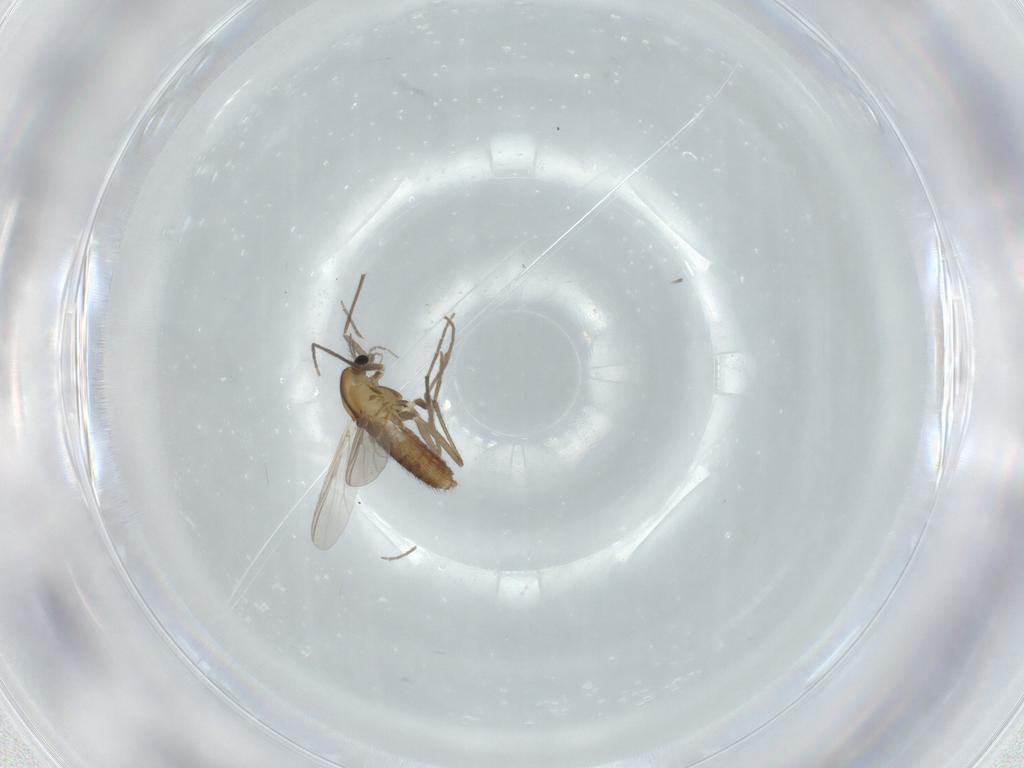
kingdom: Animalia
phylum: Arthropoda
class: Insecta
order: Diptera
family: Chironomidae
